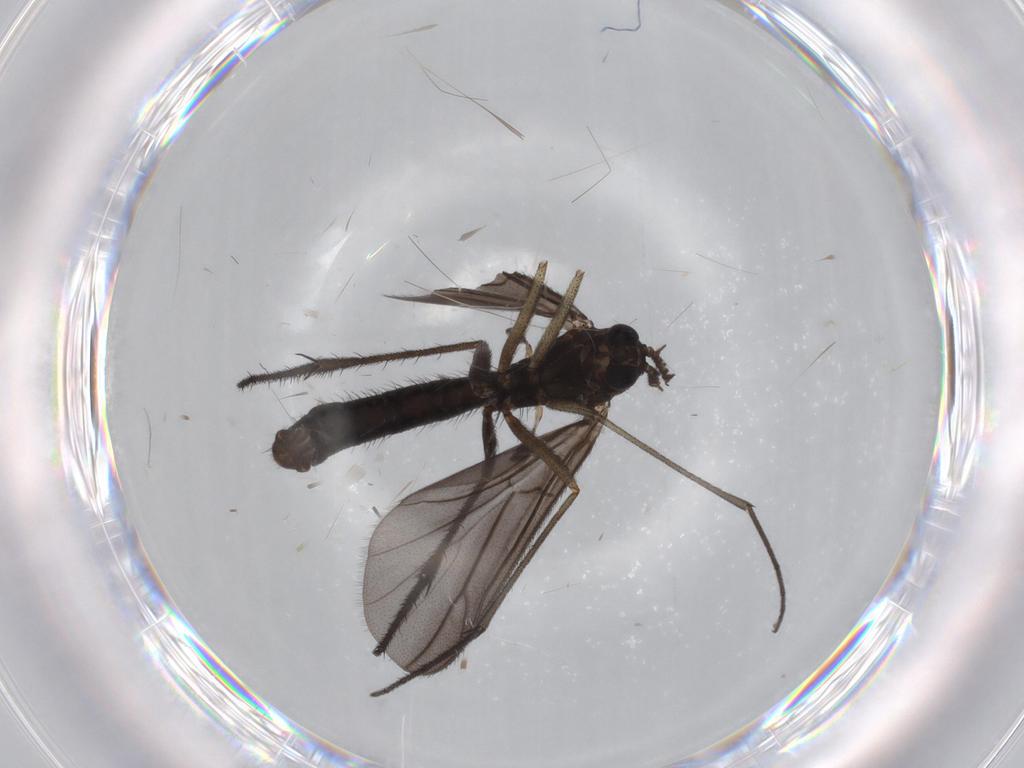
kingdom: Animalia
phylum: Arthropoda
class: Insecta
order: Diptera
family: Ditomyiidae
